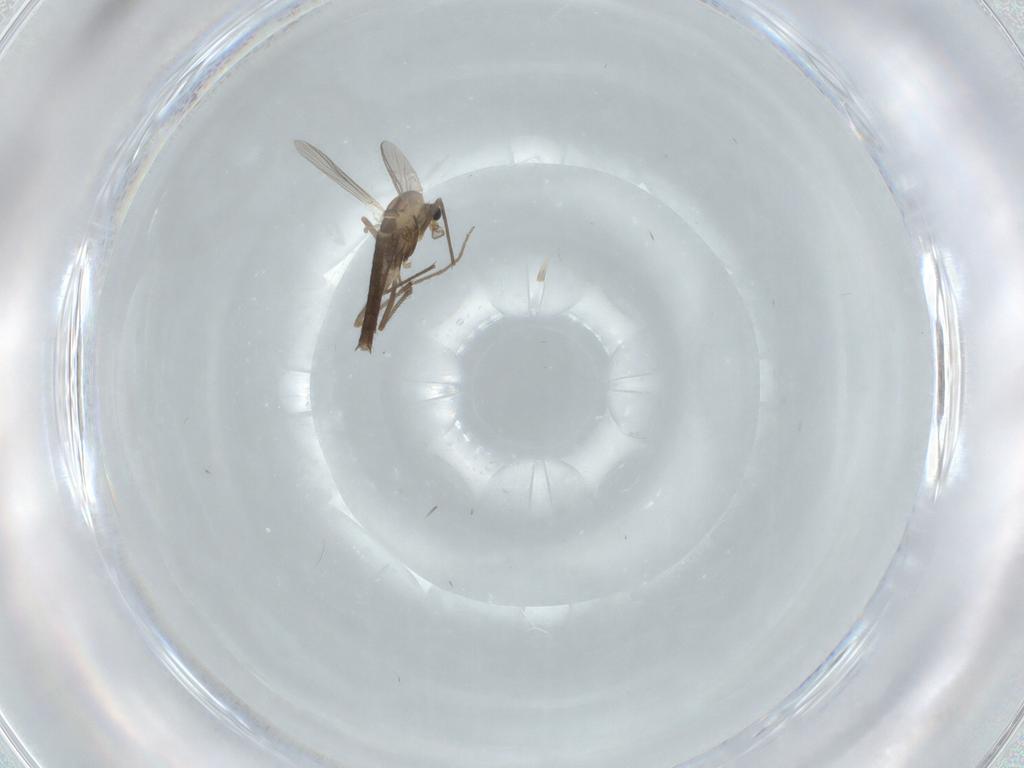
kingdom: Animalia
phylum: Arthropoda
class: Insecta
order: Diptera
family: Chironomidae
